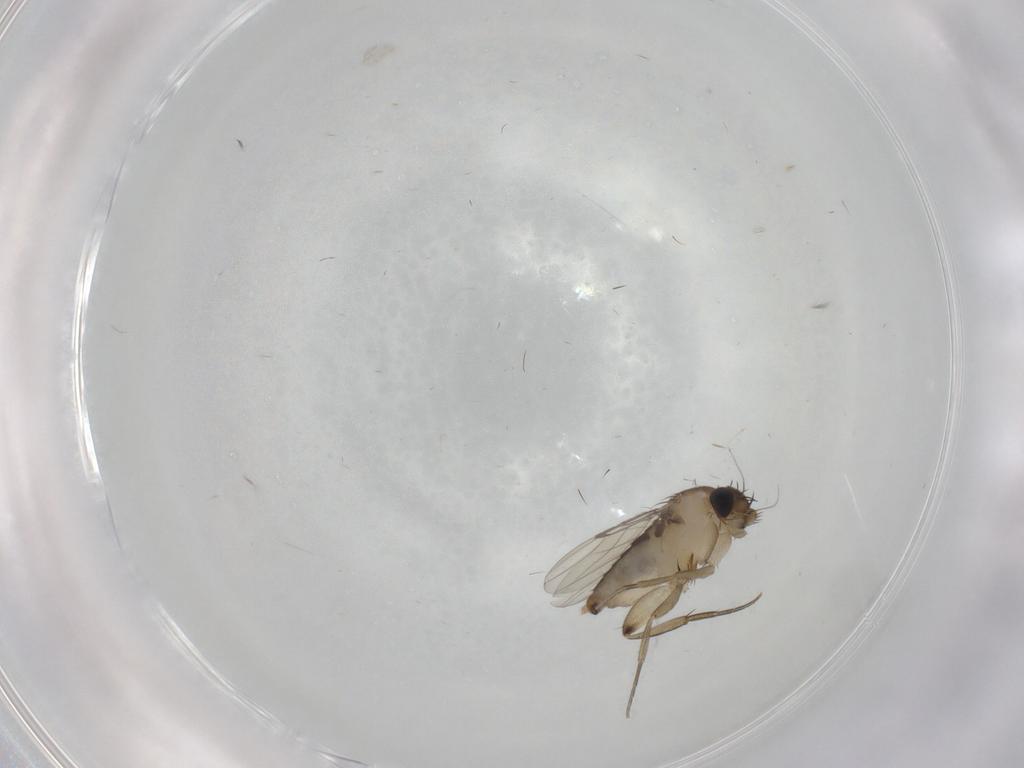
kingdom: Animalia
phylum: Arthropoda
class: Insecta
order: Diptera
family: Phoridae
